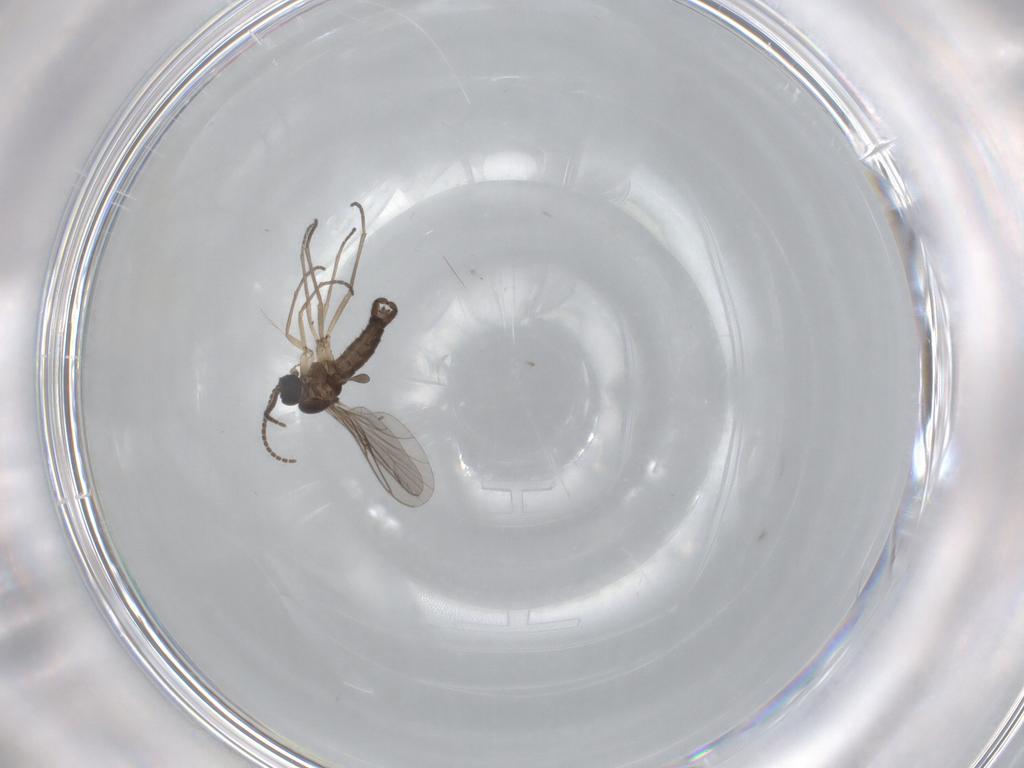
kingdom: Animalia
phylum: Arthropoda
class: Insecta
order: Diptera
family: Sciaridae
